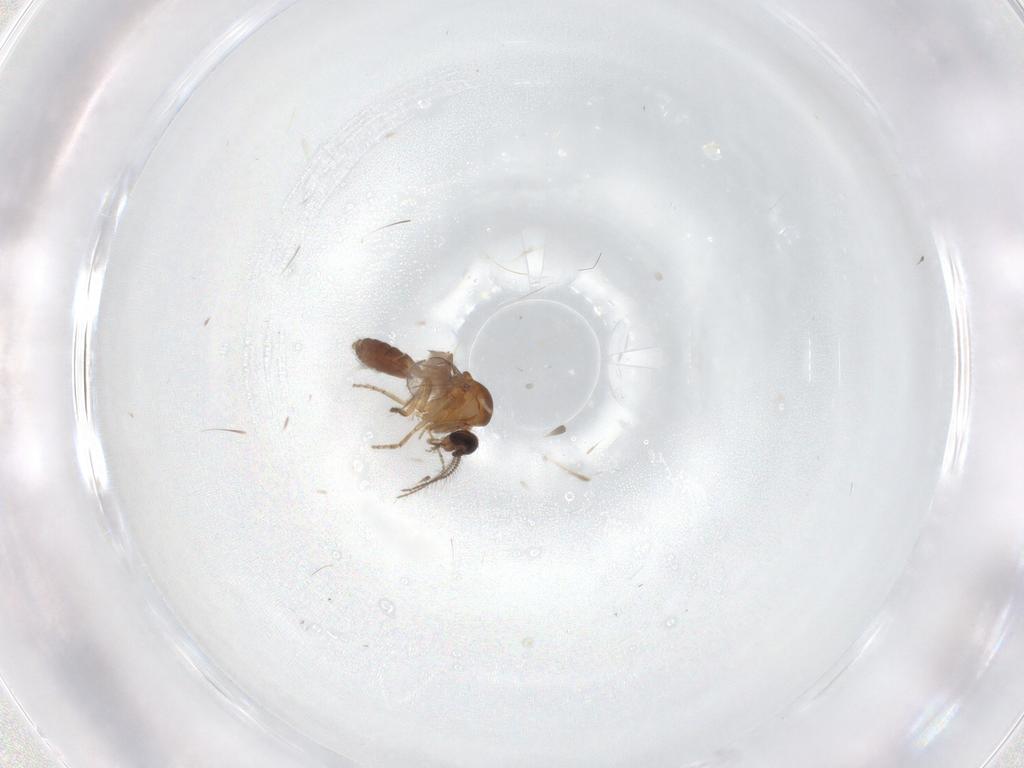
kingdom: Animalia
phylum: Arthropoda
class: Insecta
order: Diptera
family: Ceratopogonidae
